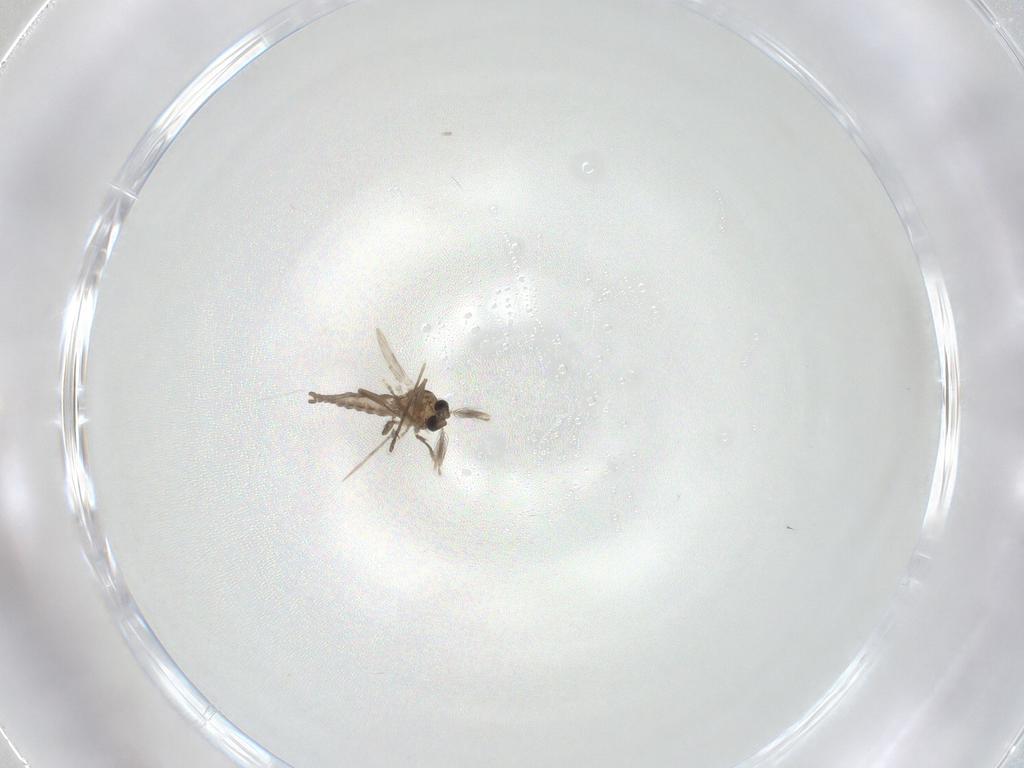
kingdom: Animalia
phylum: Arthropoda
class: Insecta
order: Diptera
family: Ceratopogonidae
